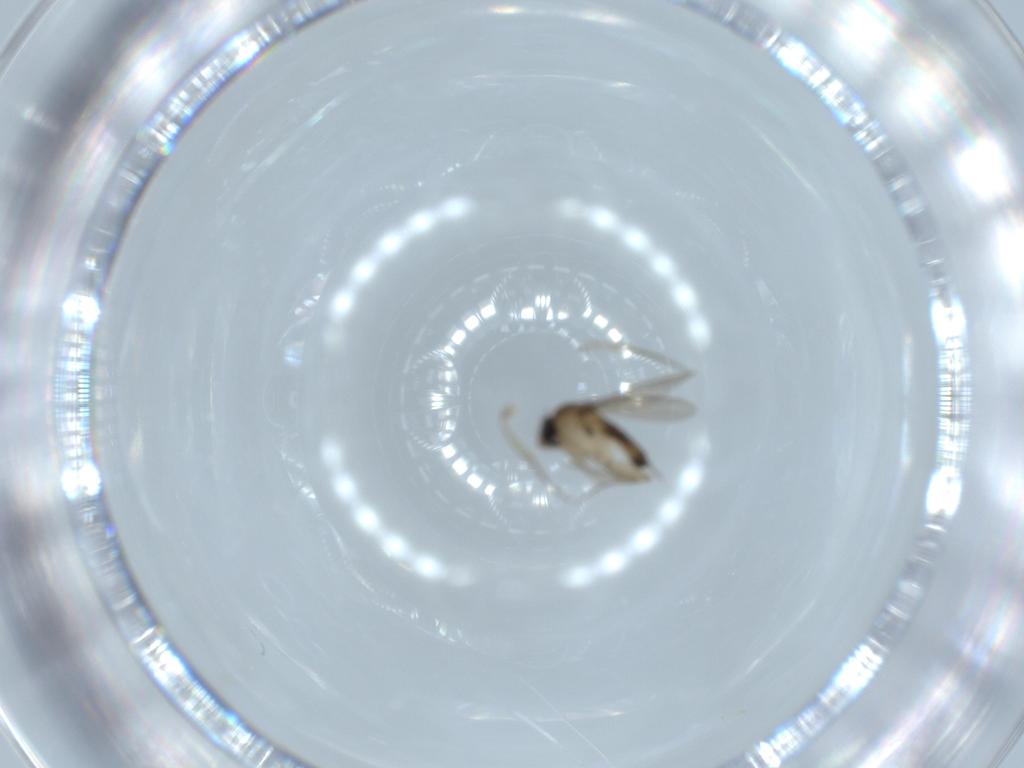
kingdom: Animalia
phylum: Arthropoda
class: Insecta
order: Diptera
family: Phoridae
